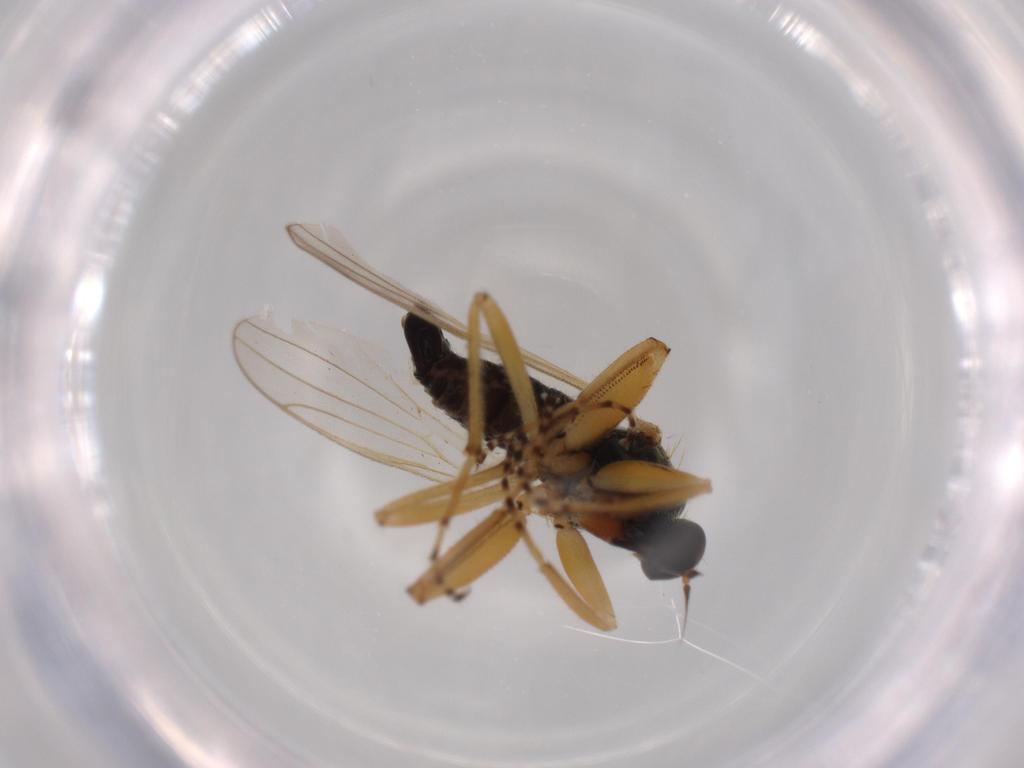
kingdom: Animalia
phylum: Arthropoda
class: Insecta
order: Diptera
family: Hybotidae
